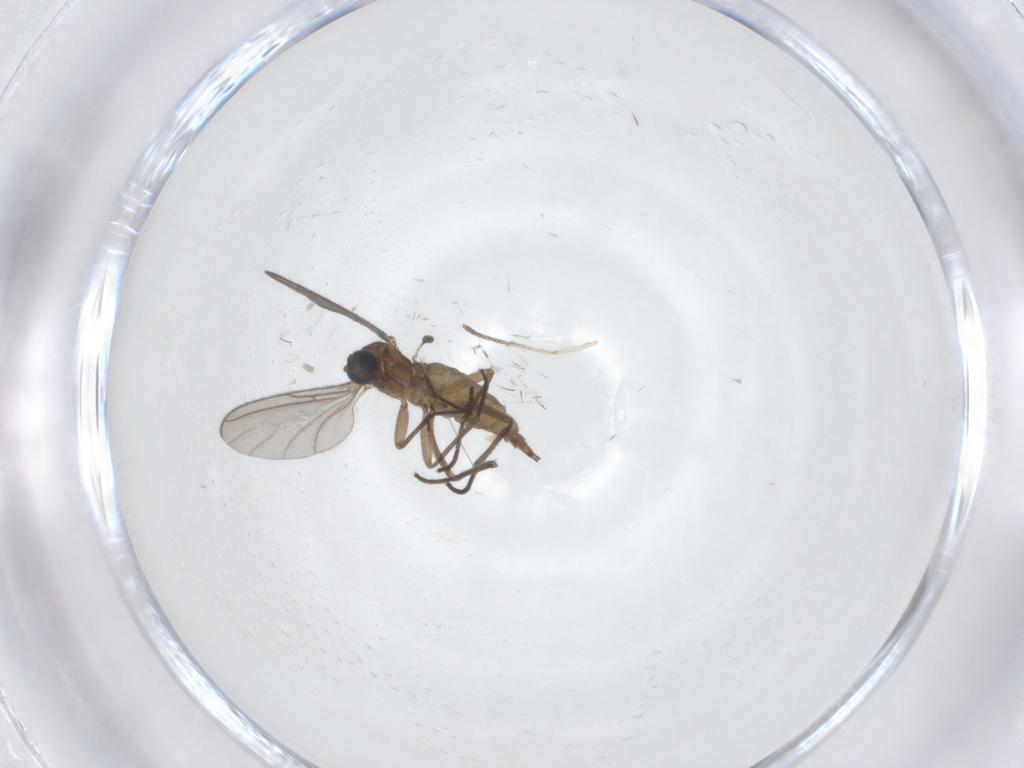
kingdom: Animalia
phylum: Arthropoda
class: Insecta
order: Diptera
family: Sciaridae
